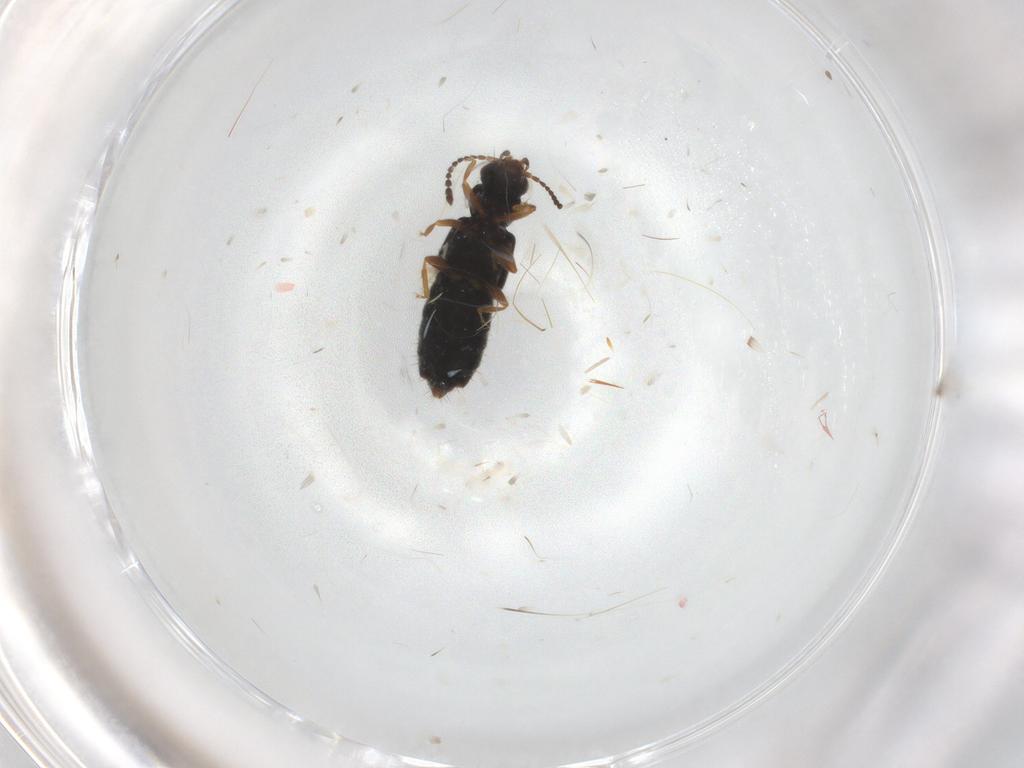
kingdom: Animalia
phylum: Arthropoda
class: Insecta
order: Coleoptera
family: Staphylinidae
